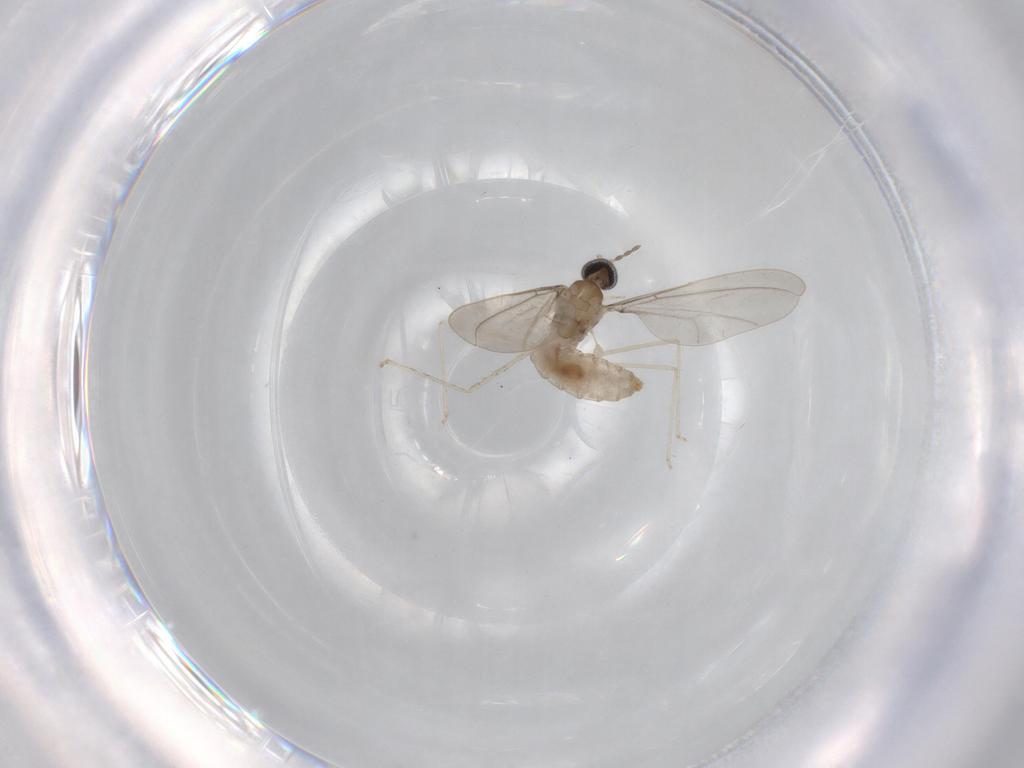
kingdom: Animalia
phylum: Arthropoda
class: Insecta
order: Diptera
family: Cecidomyiidae
